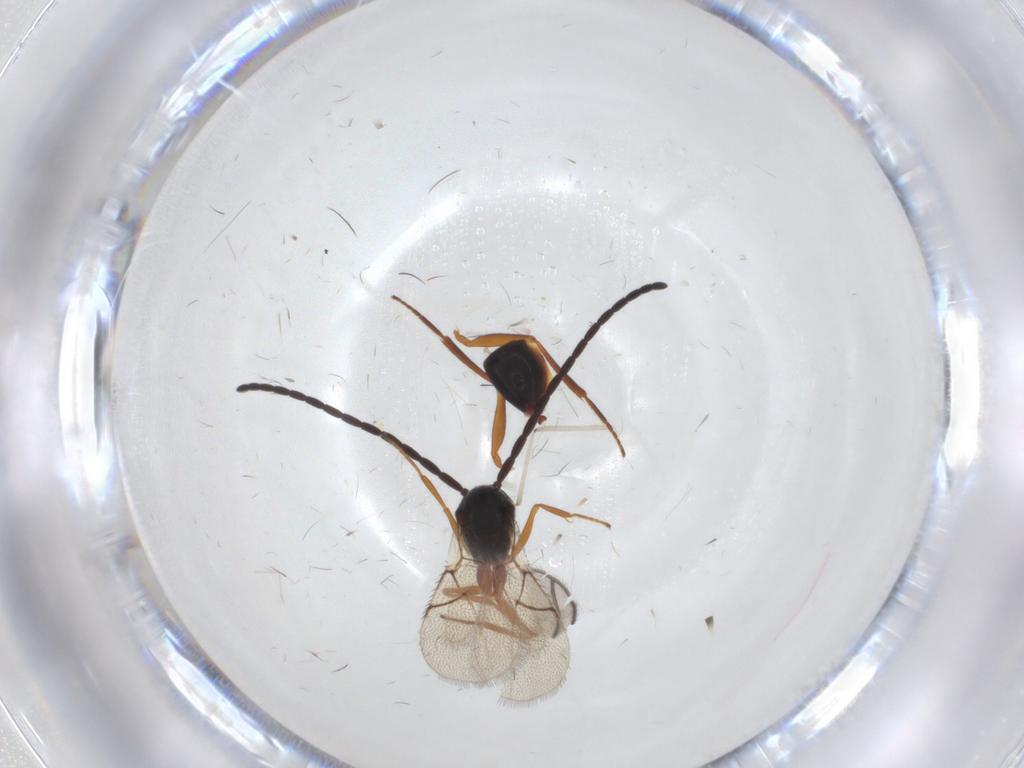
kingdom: Animalia
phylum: Arthropoda
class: Insecta
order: Hymenoptera
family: Figitidae
